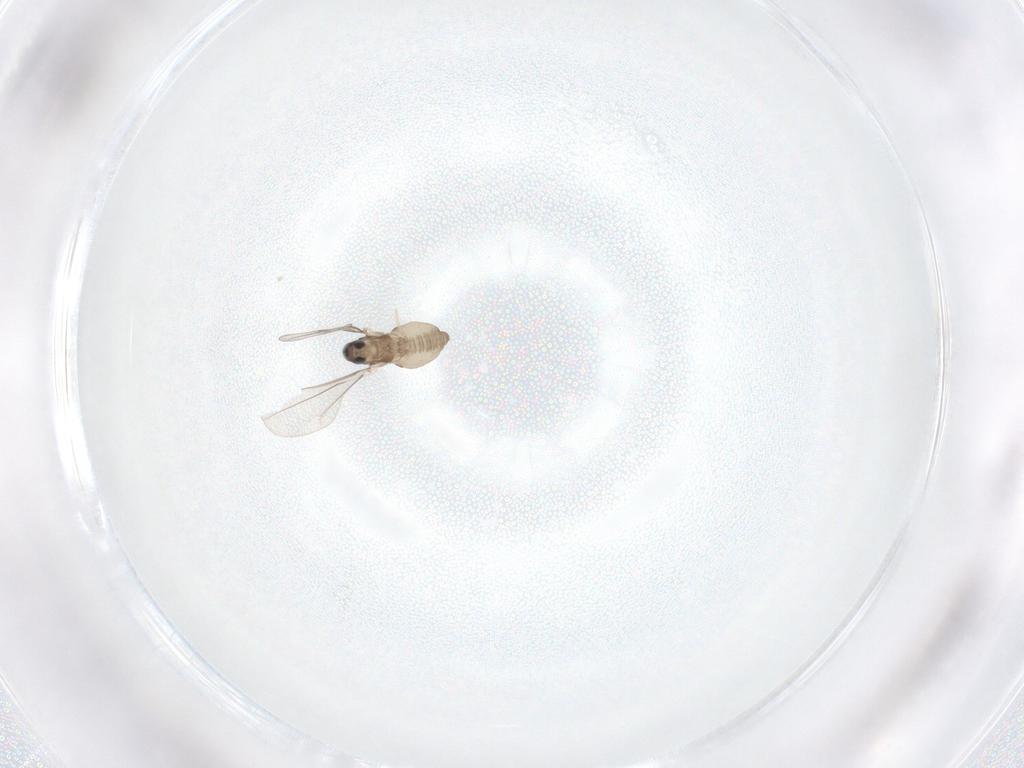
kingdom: Animalia
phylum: Arthropoda
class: Insecta
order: Diptera
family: Cecidomyiidae
